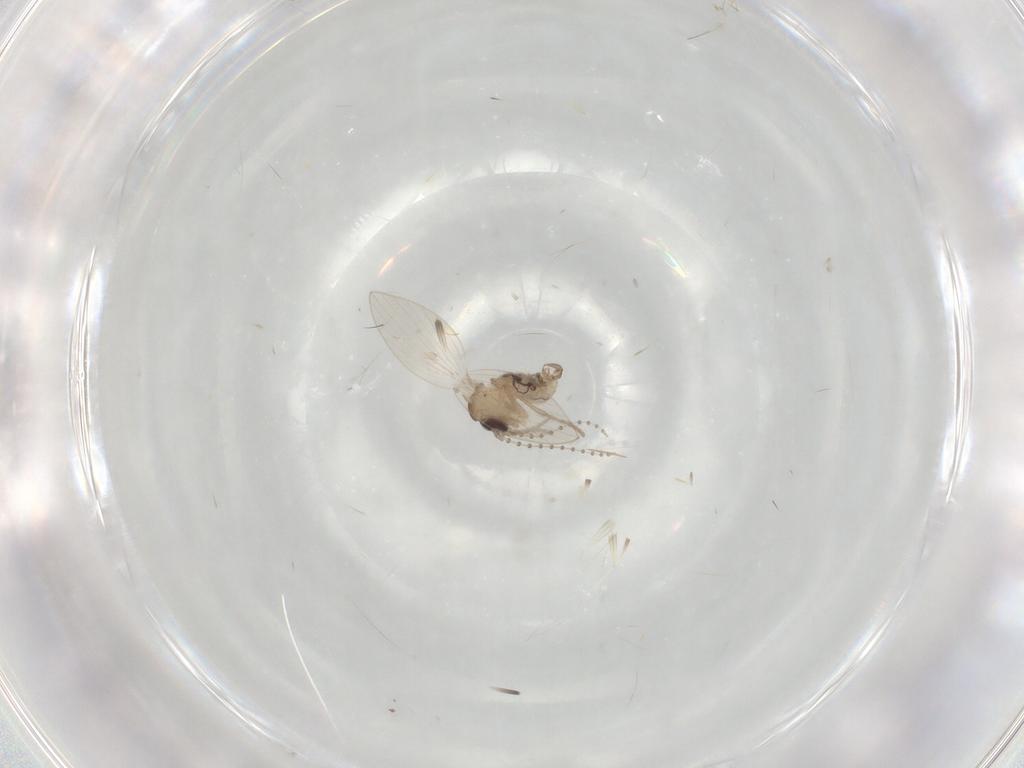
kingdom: Animalia
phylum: Arthropoda
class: Insecta
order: Diptera
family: Psychodidae
